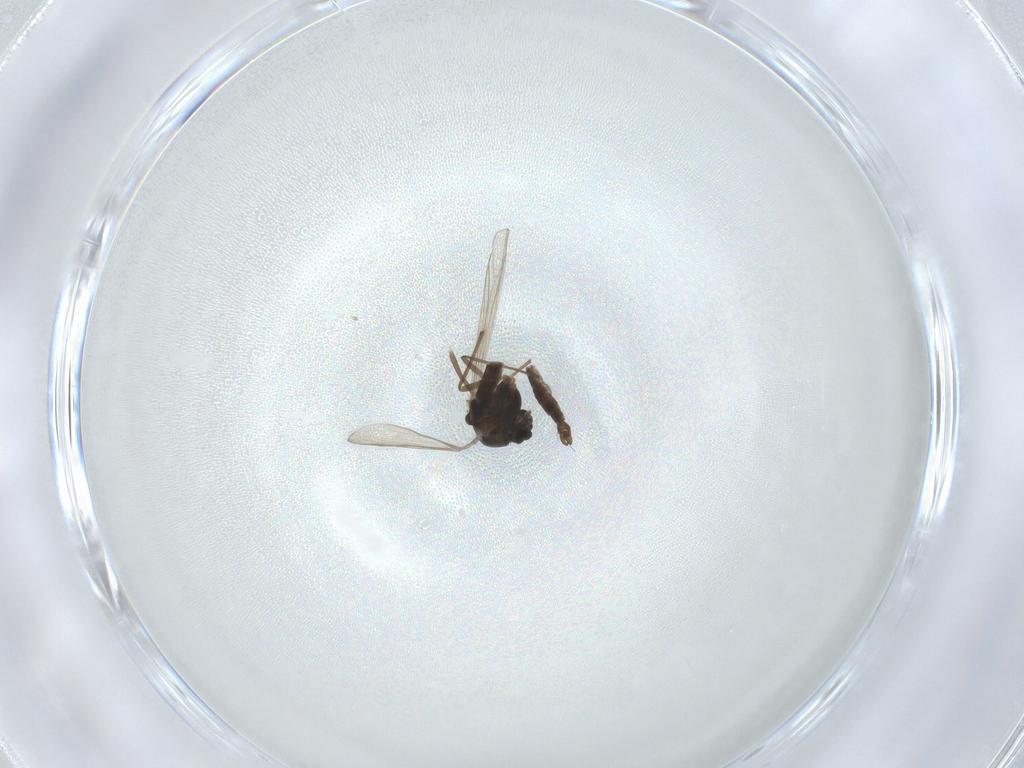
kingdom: Animalia
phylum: Arthropoda
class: Insecta
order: Diptera
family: Chironomidae
